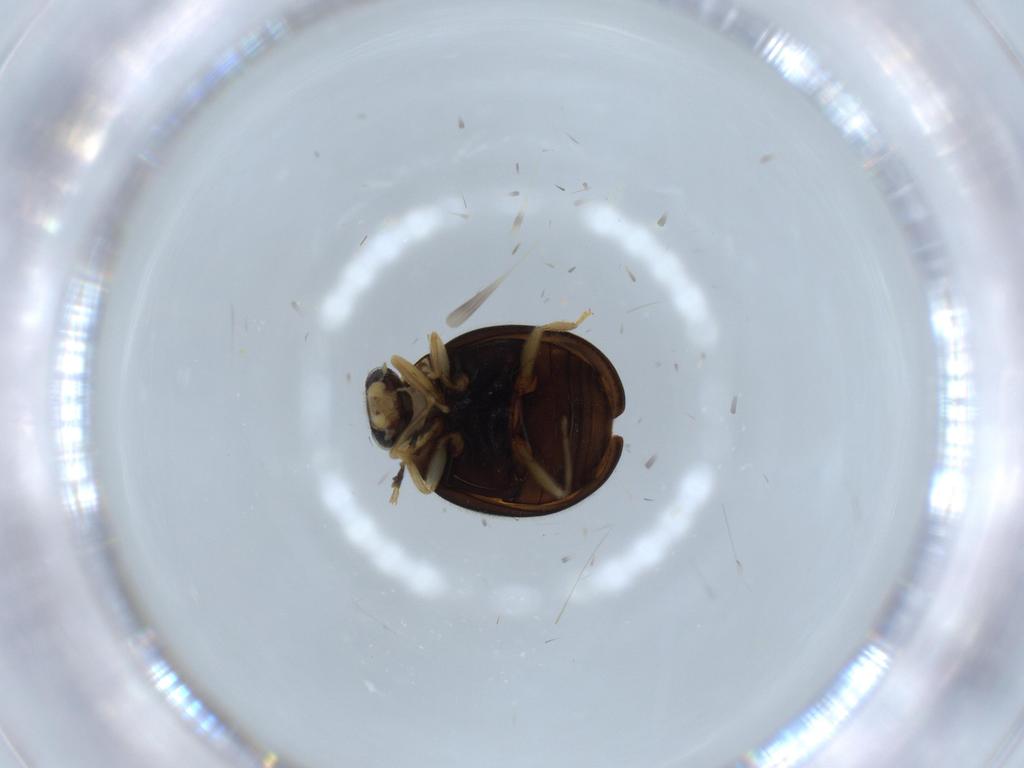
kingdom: Animalia
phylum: Arthropoda
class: Insecta
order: Coleoptera
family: Coccinellidae
